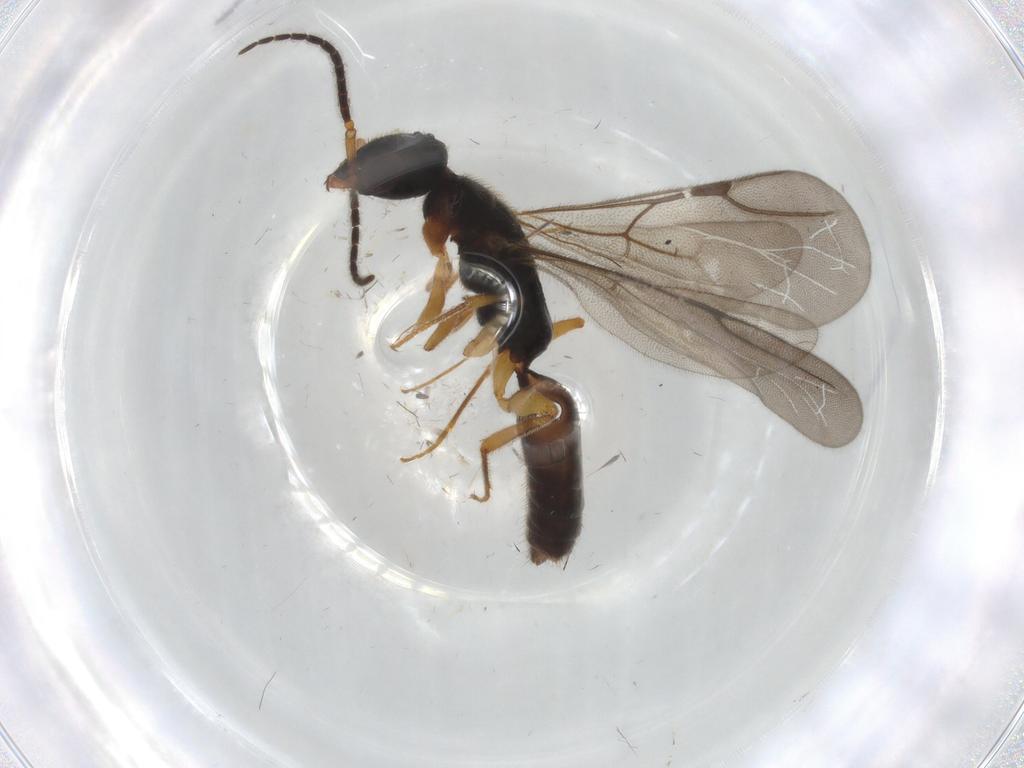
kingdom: Animalia
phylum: Arthropoda
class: Insecta
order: Hymenoptera
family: Bethylidae
